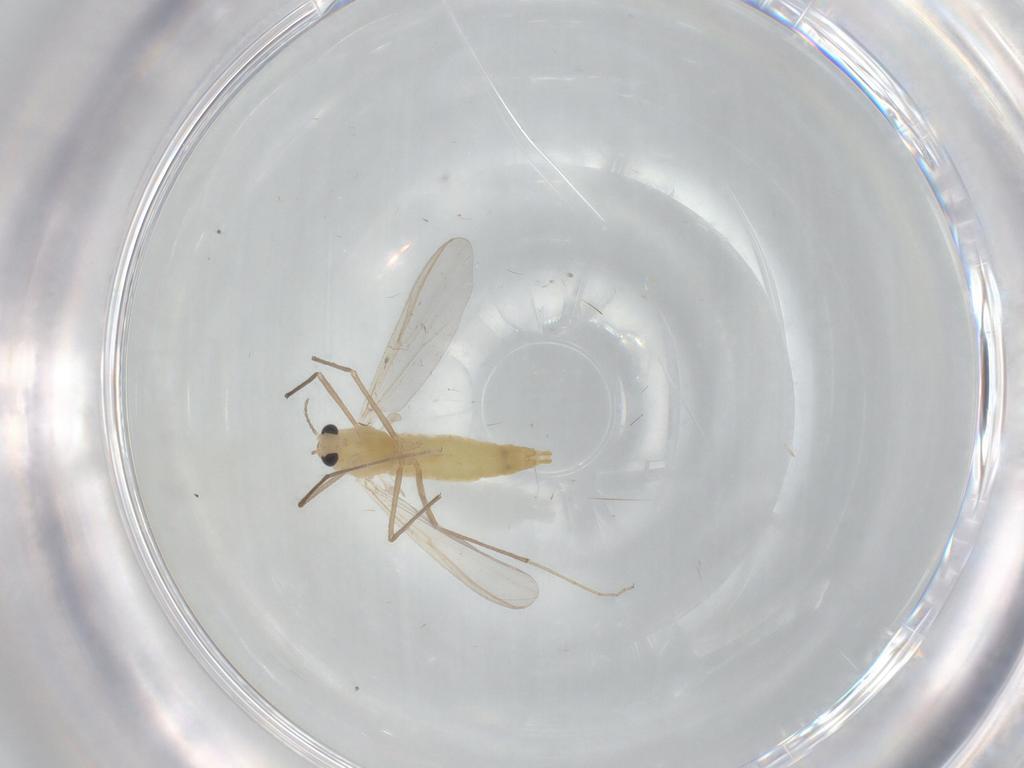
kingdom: Animalia
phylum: Arthropoda
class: Insecta
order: Diptera
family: Chironomidae
